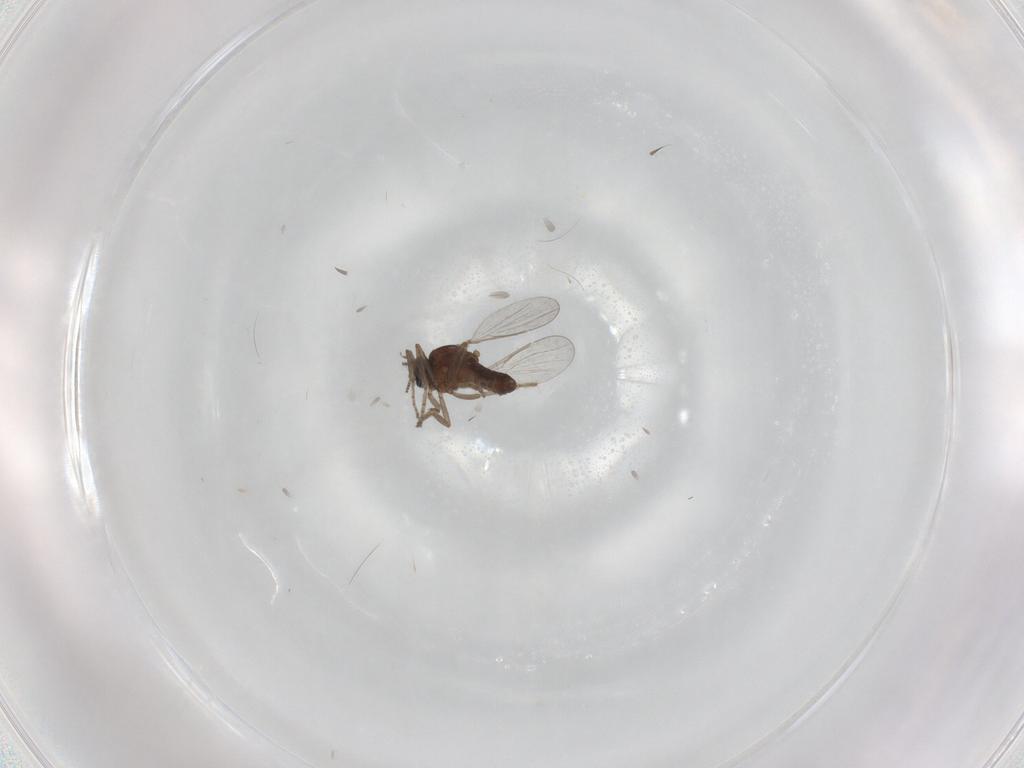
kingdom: Animalia
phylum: Arthropoda
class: Insecta
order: Diptera
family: Ceratopogonidae
